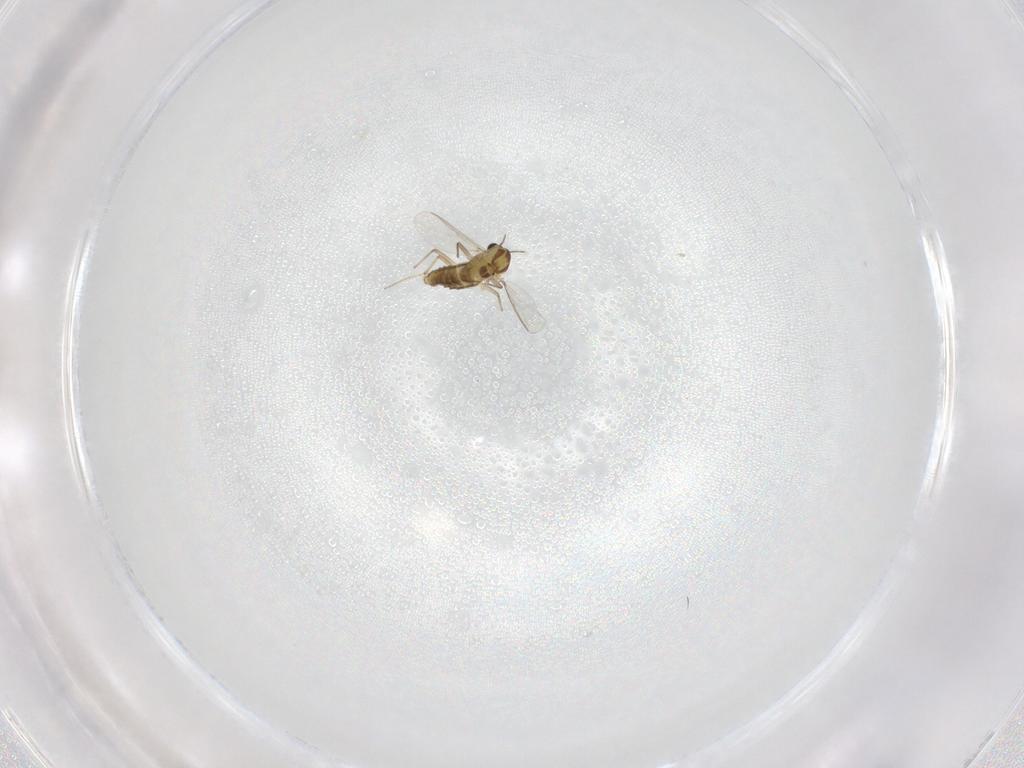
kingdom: Animalia
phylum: Arthropoda
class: Insecta
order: Diptera
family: Chironomidae
